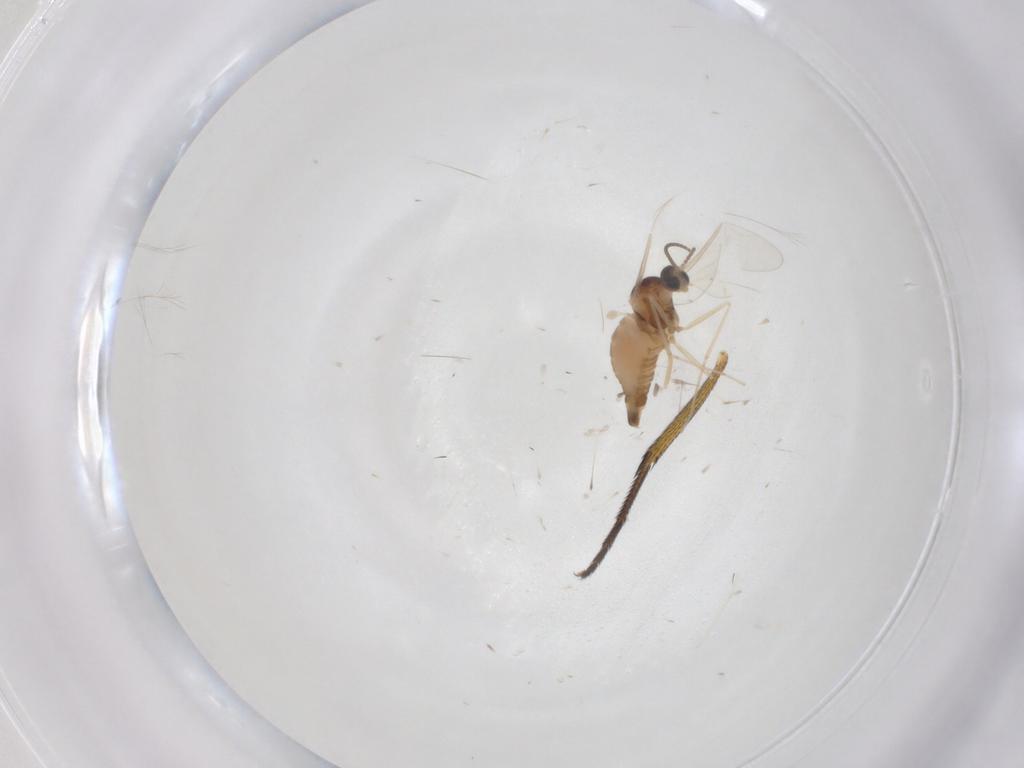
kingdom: Animalia
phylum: Arthropoda
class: Insecta
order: Diptera
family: Cecidomyiidae
